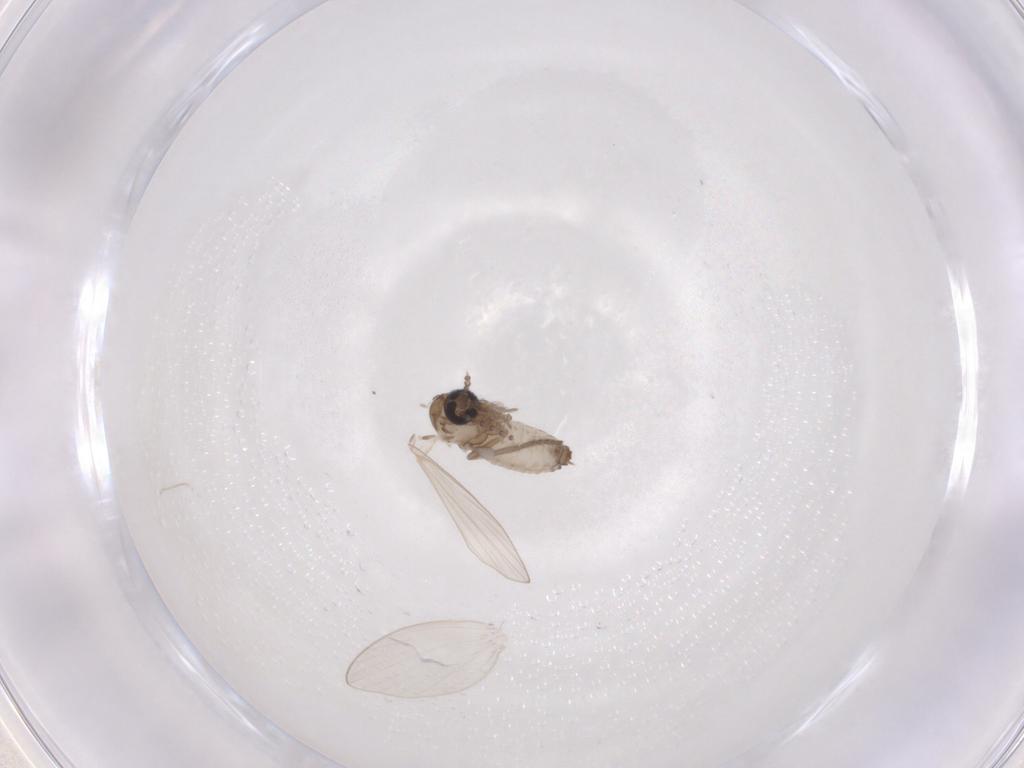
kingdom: Animalia
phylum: Arthropoda
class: Insecta
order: Diptera
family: Psychodidae
